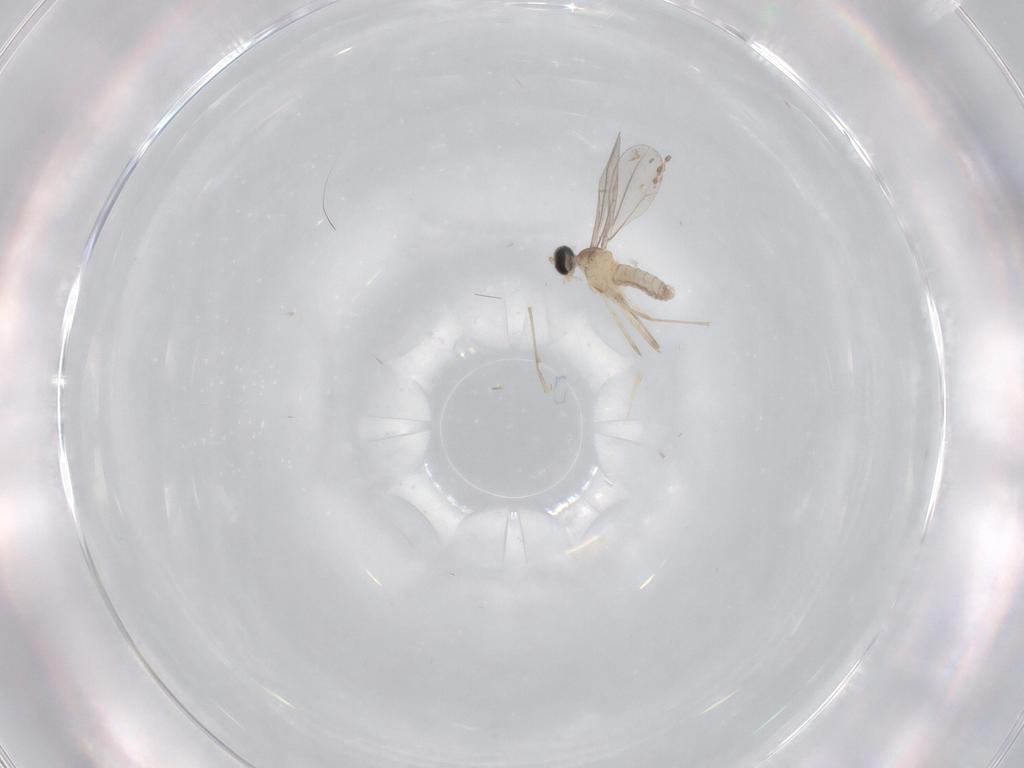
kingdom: Animalia
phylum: Arthropoda
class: Insecta
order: Diptera
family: Cecidomyiidae
